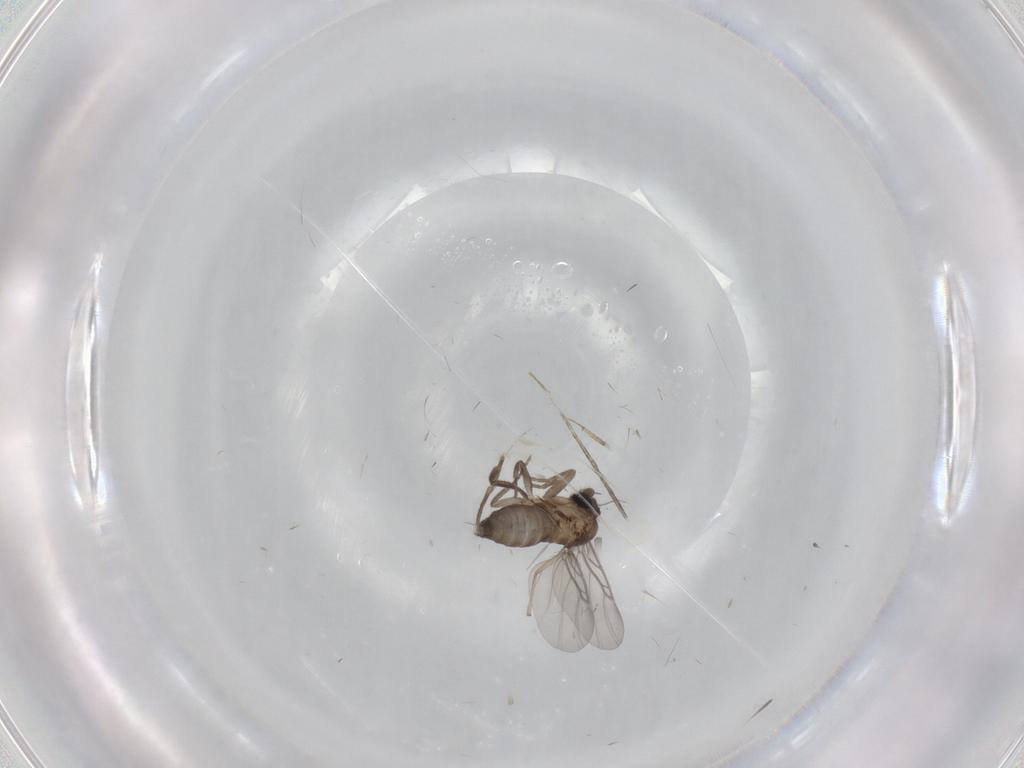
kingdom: Animalia
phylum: Arthropoda
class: Insecta
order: Diptera
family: Psychodidae
